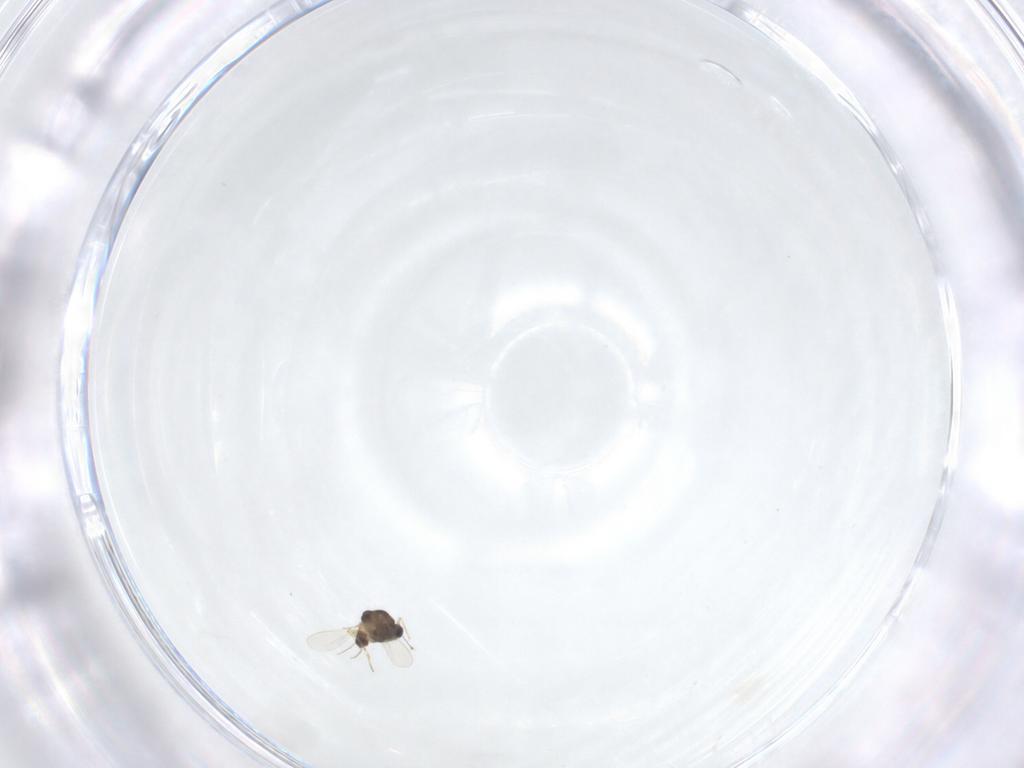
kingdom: Animalia
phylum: Arthropoda
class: Insecta
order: Diptera
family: Chironomidae
